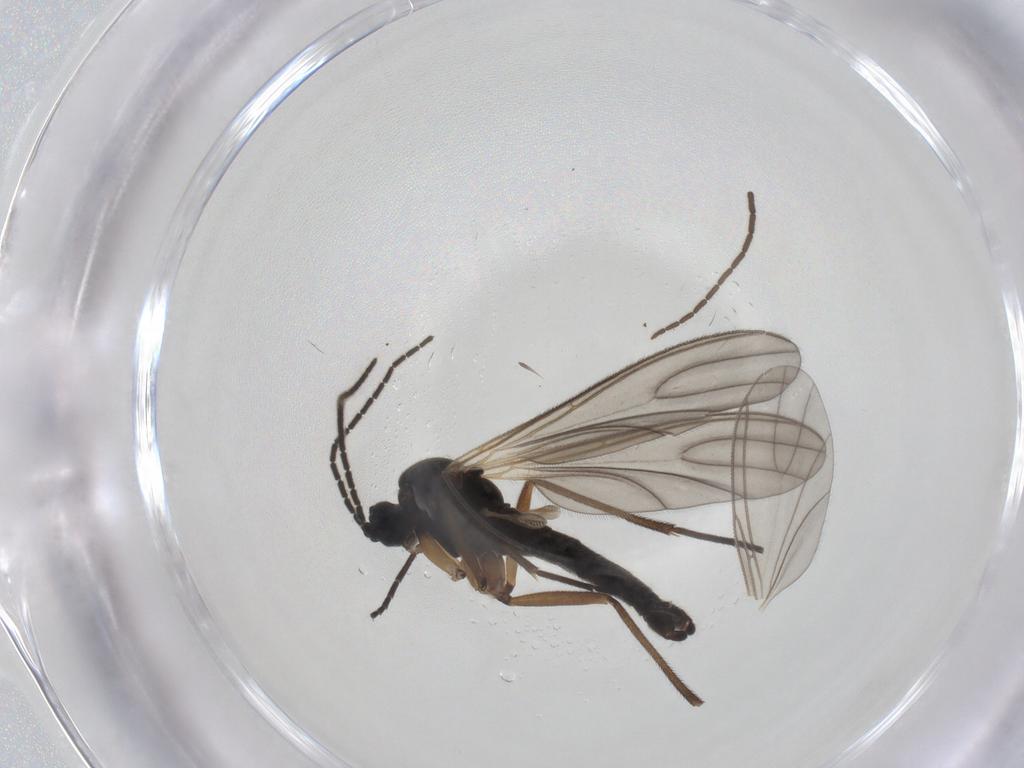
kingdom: Animalia
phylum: Arthropoda
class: Insecta
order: Diptera
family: Sciaridae
